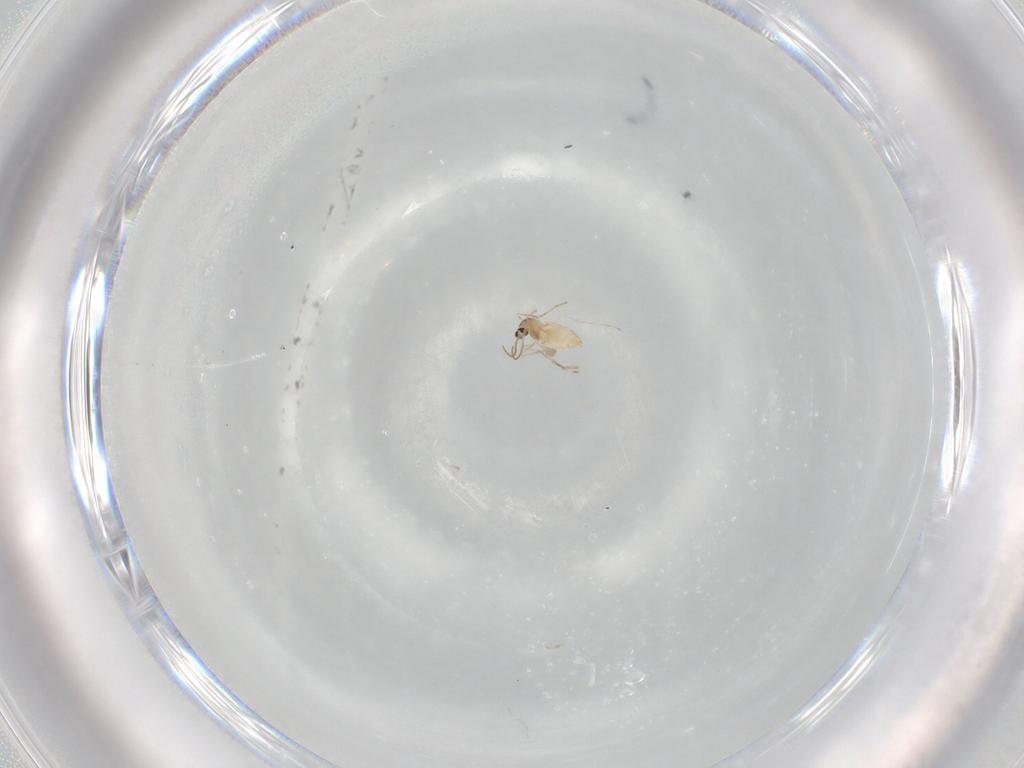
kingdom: Animalia
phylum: Arthropoda
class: Insecta
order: Diptera
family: Cecidomyiidae
